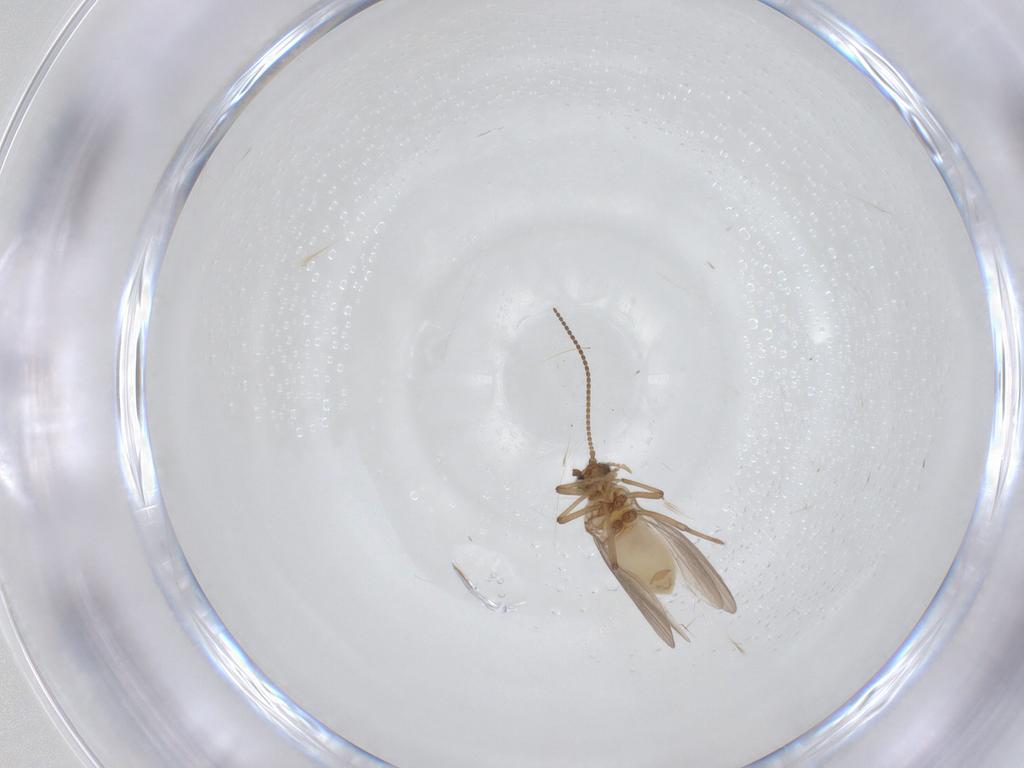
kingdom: Animalia
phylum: Arthropoda
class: Insecta
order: Neuroptera
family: Coniopterygidae
